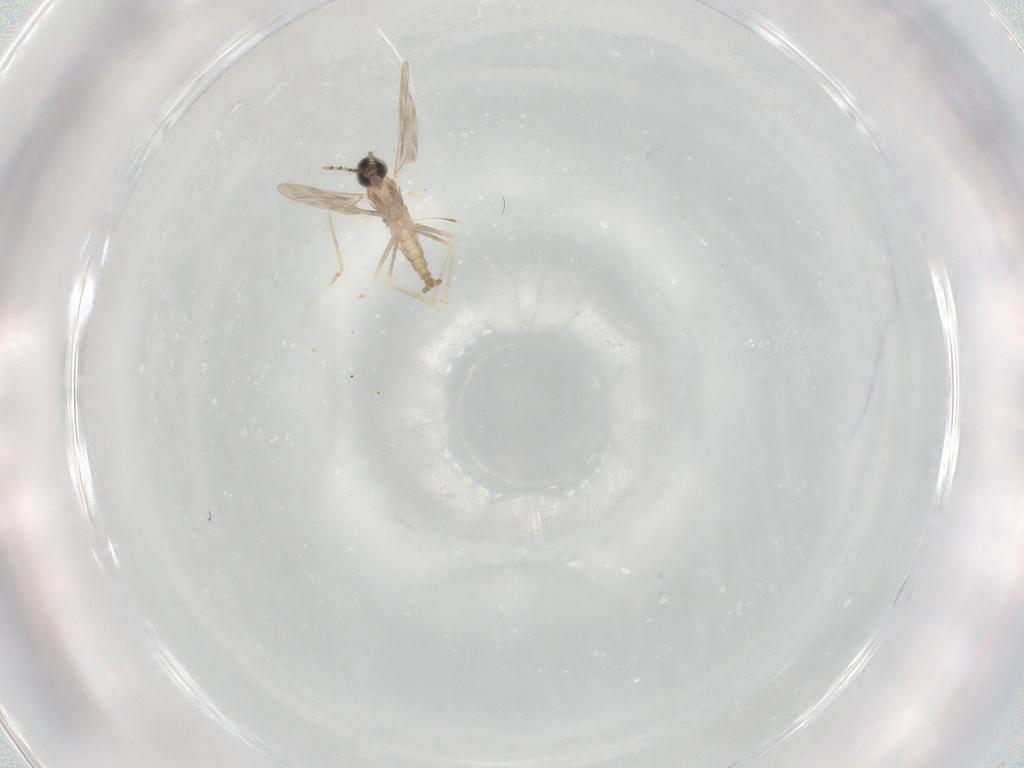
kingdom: Animalia
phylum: Arthropoda
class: Insecta
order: Diptera
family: Cecidomyiidae
